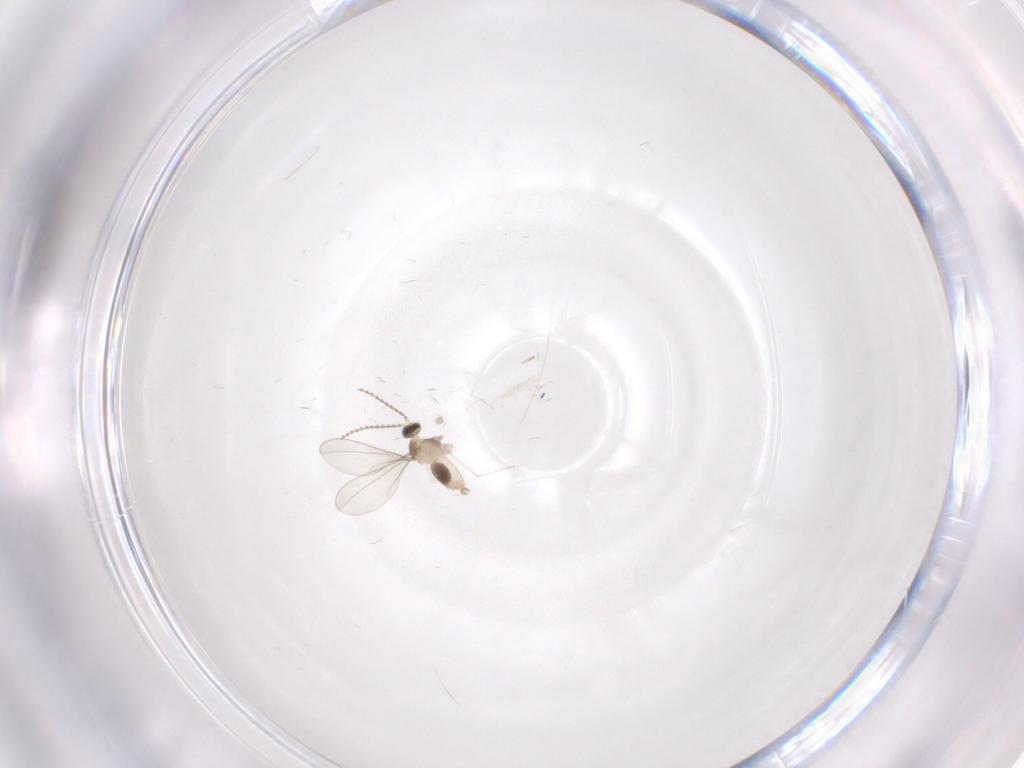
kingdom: Animalia
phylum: Arthropoda
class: Insecta
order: Diptera
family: Cecidomyiidae
